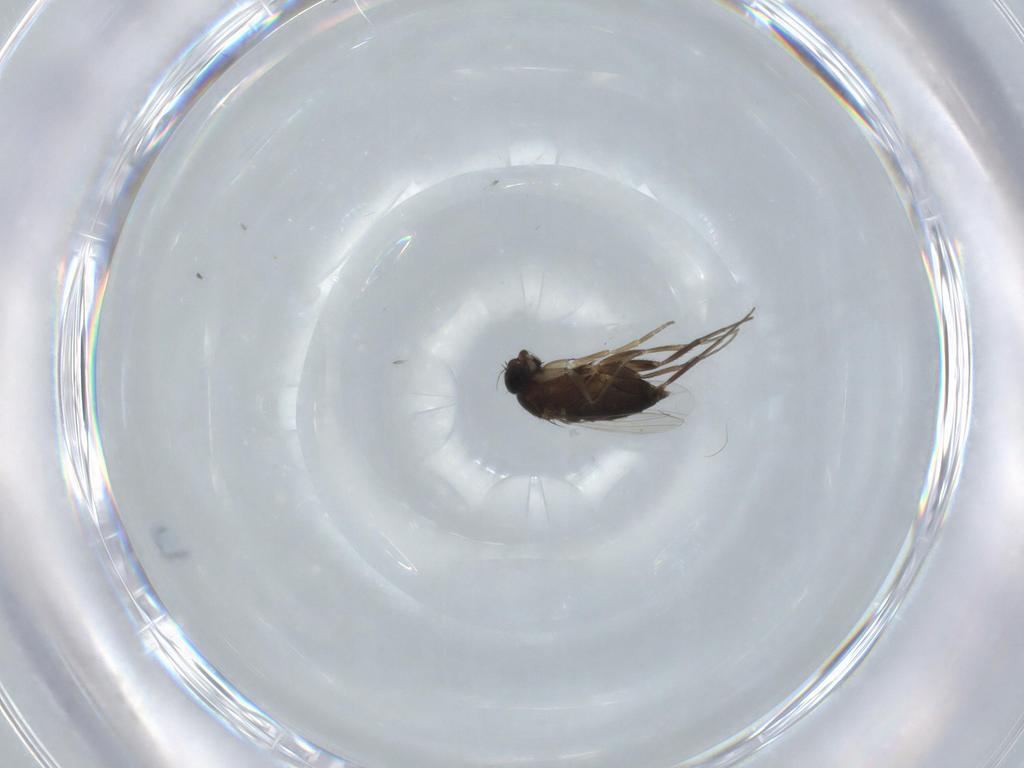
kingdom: Animalia
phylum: Arthropoda
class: Insecta
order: Diptera
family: Phoridae
